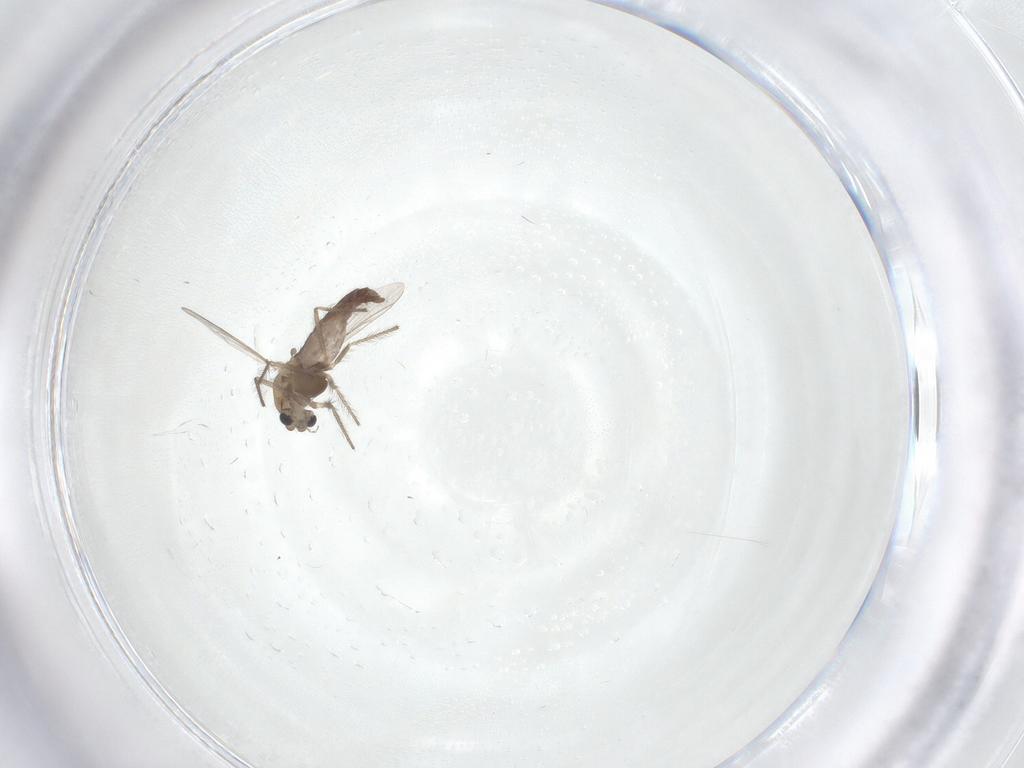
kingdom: Animalia
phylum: Arthropoda
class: Insecta
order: Diptera
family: Chironomidae
